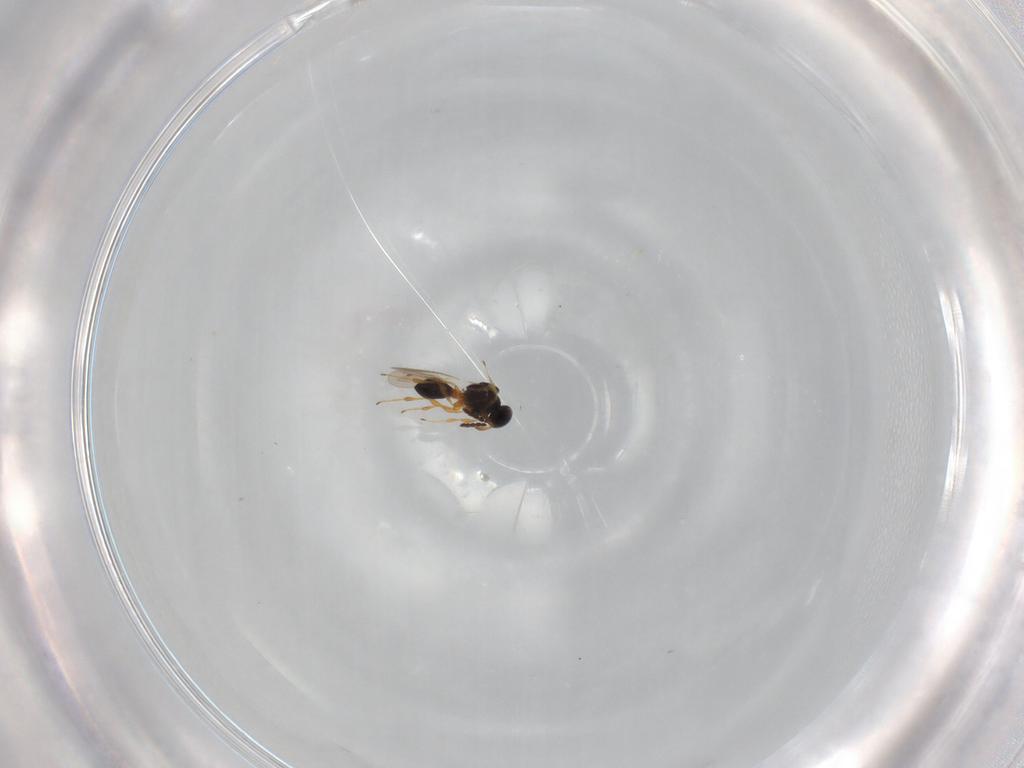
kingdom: Animalia
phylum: Arthropoda
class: Insecta
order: Hymenoptera
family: Platygastridae
